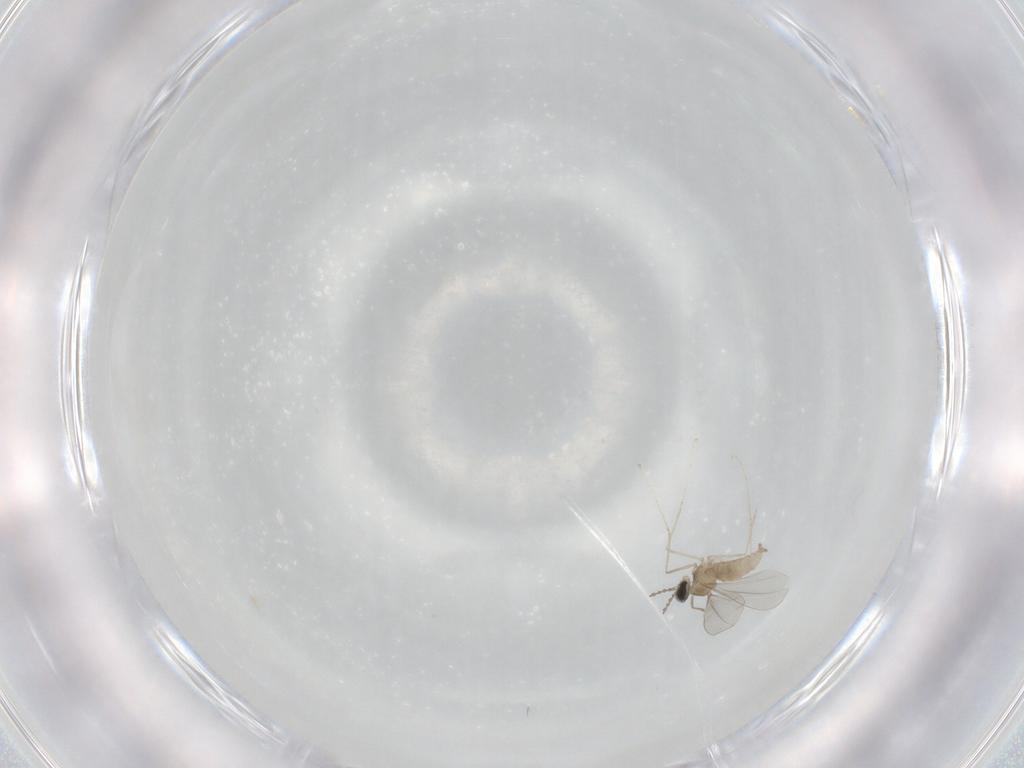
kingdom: Animalia
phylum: Arthropoda
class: Insecta
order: Diptera
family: Cecidomyiidae
